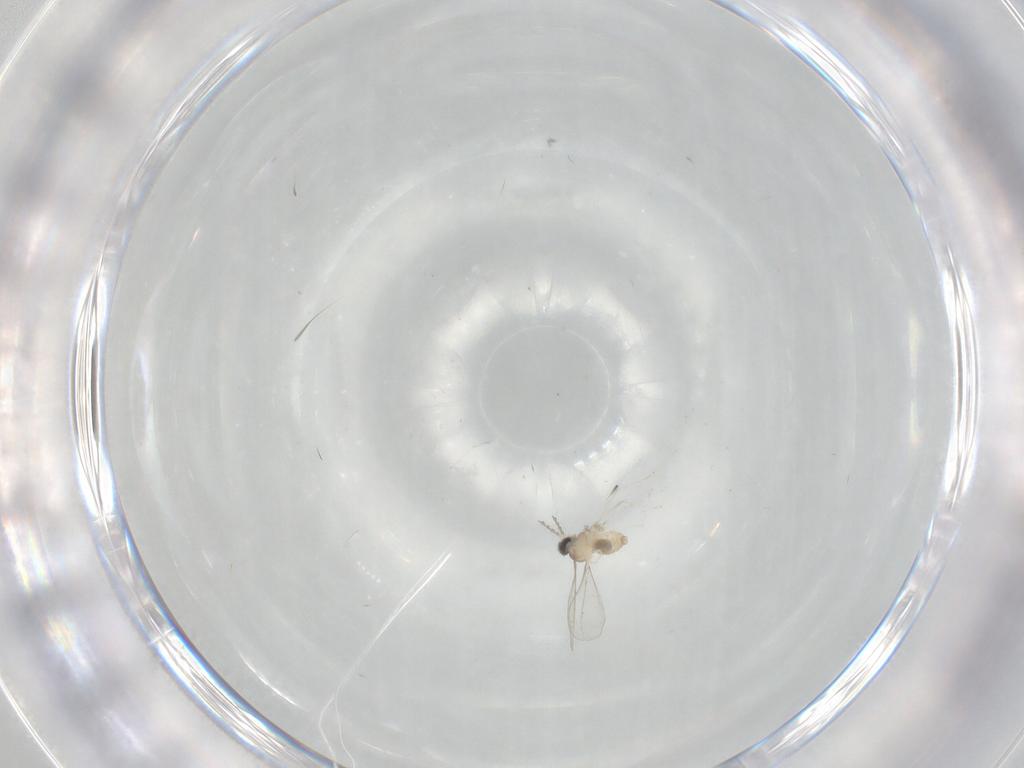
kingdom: Animalia
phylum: Arthropoda
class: Insecta
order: Diptera
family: Cecidomyiidae
